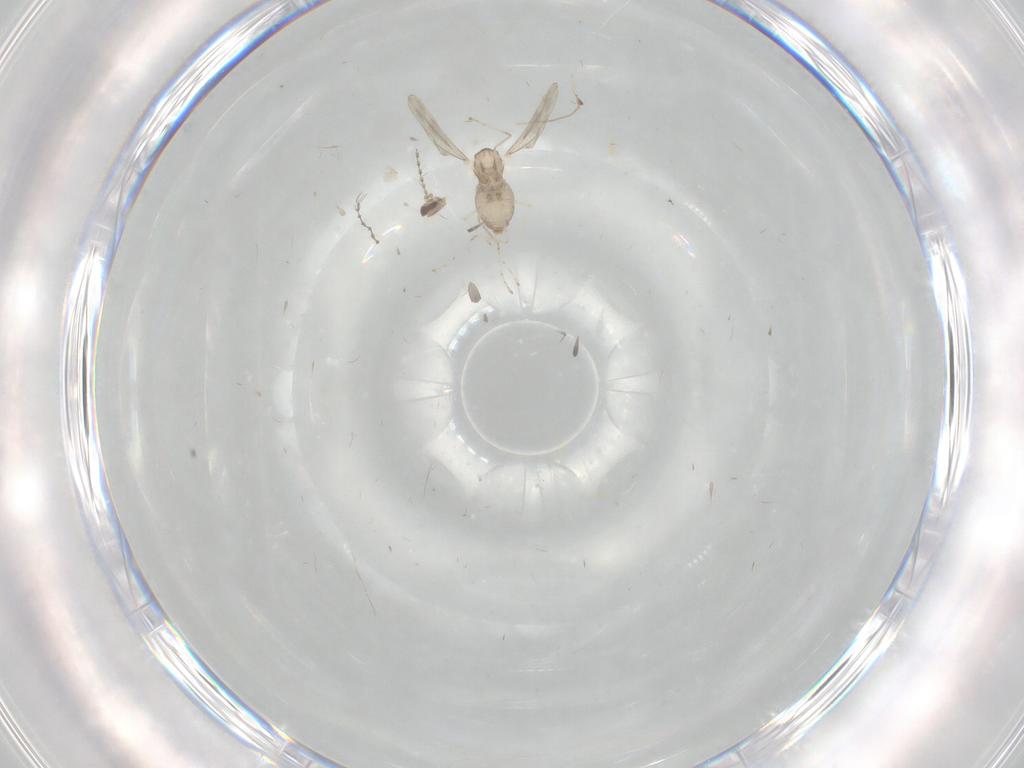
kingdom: Animalia
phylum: Arthropoda
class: Insecta
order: Diptera
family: Cecidomyiidae
